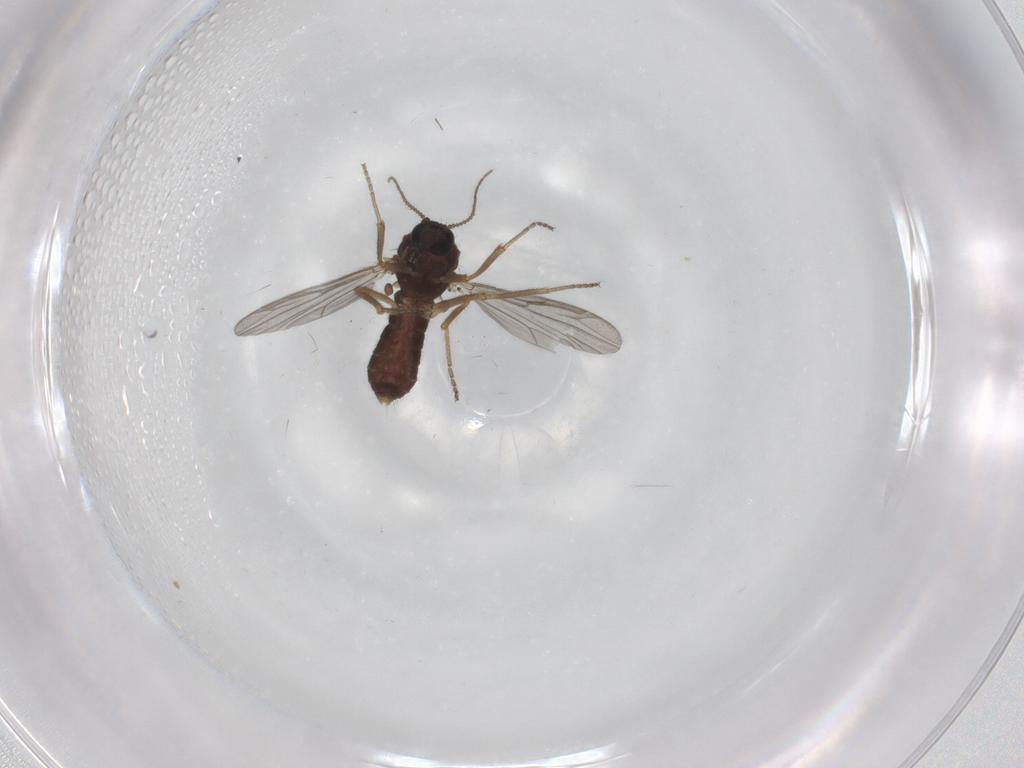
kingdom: Animalia
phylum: Arthropoda
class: Insecta
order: Diptera
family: Ceratopogonidae
